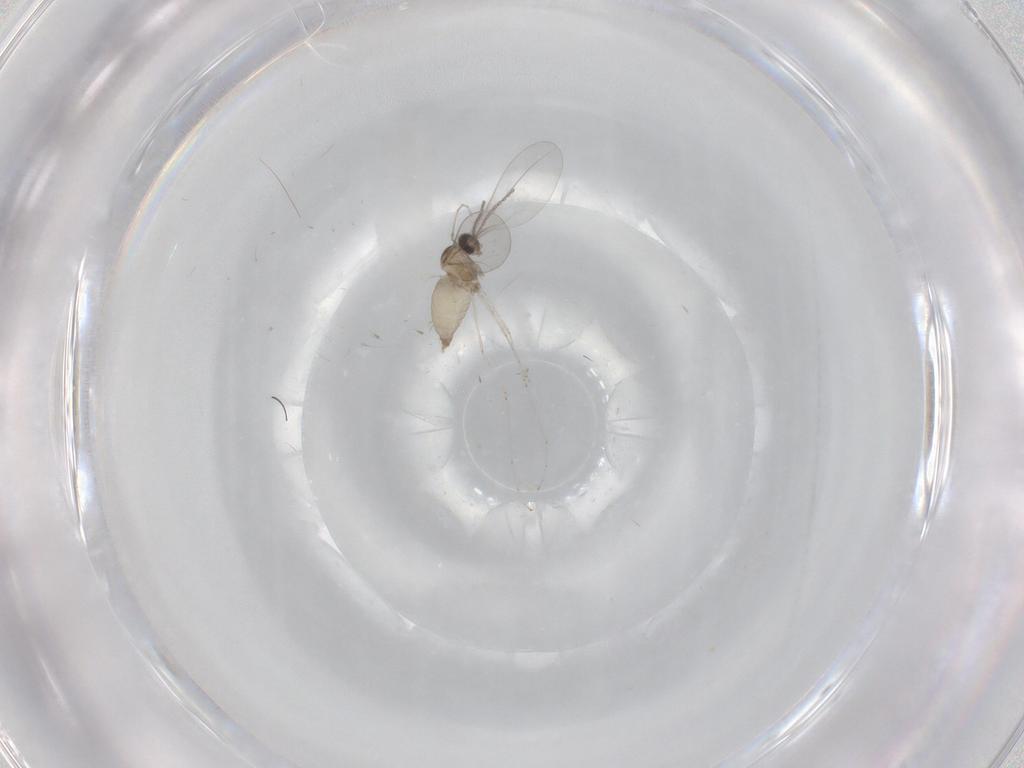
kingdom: Animalia
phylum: Arthropoda
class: Insecta
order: Diptera
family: Cecidomyiidae
